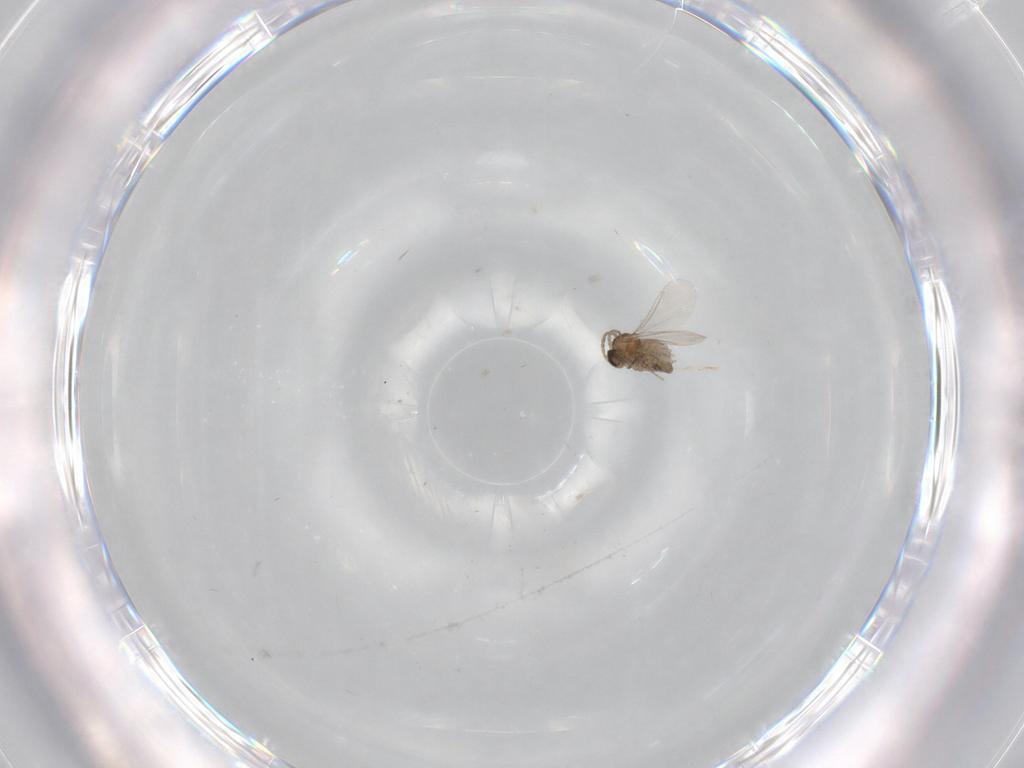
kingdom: Animalia
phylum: Arthropoda
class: Insecta
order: Diptera
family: Cecidomyiidae
